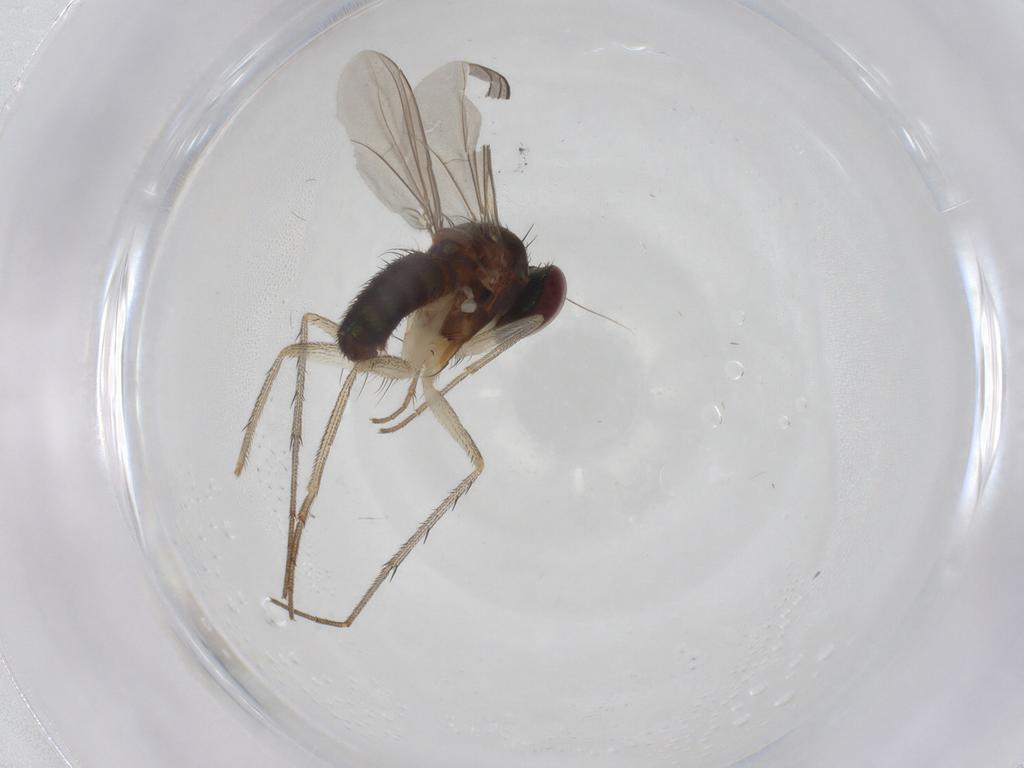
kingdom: Animalia
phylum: Arthropoda
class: Insecta
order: Diptera
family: Dolichopodidae
